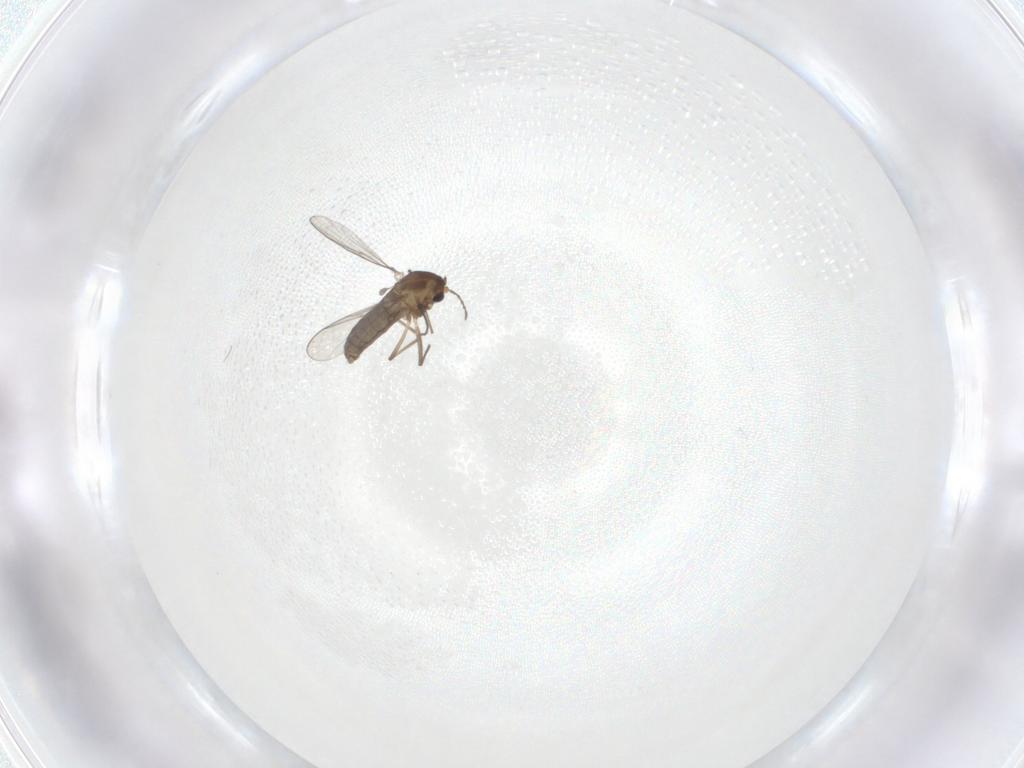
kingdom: Animalia
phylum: Arthropoda
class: Insecta
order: Diptera
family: Chironomidae
